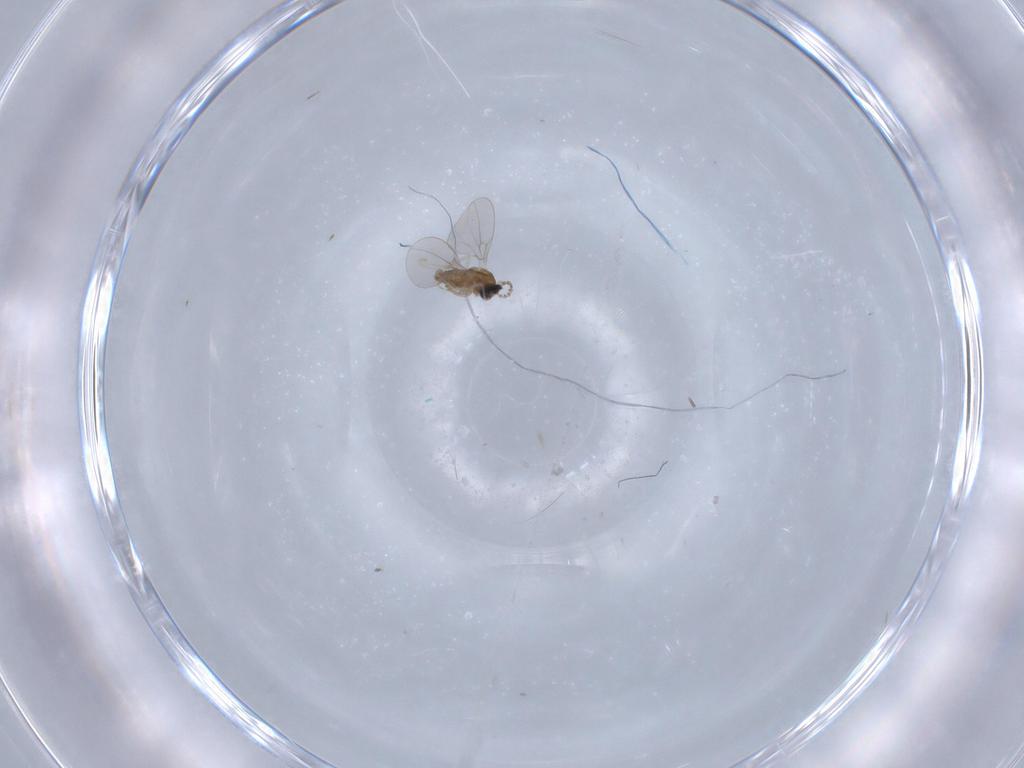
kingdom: Animalia
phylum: Arthropoda
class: Insecta
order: Diptera
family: Cecidomyiidae
